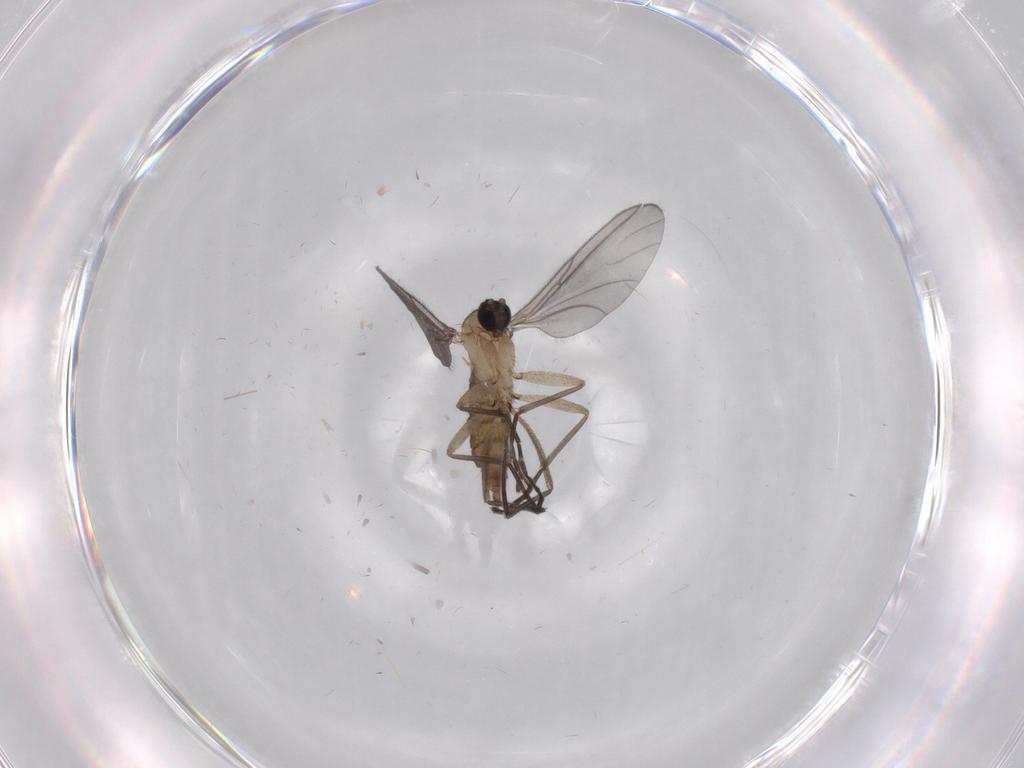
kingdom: Animalia
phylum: Arthropoda
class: Insecta
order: Diptera
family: Sciaridae
